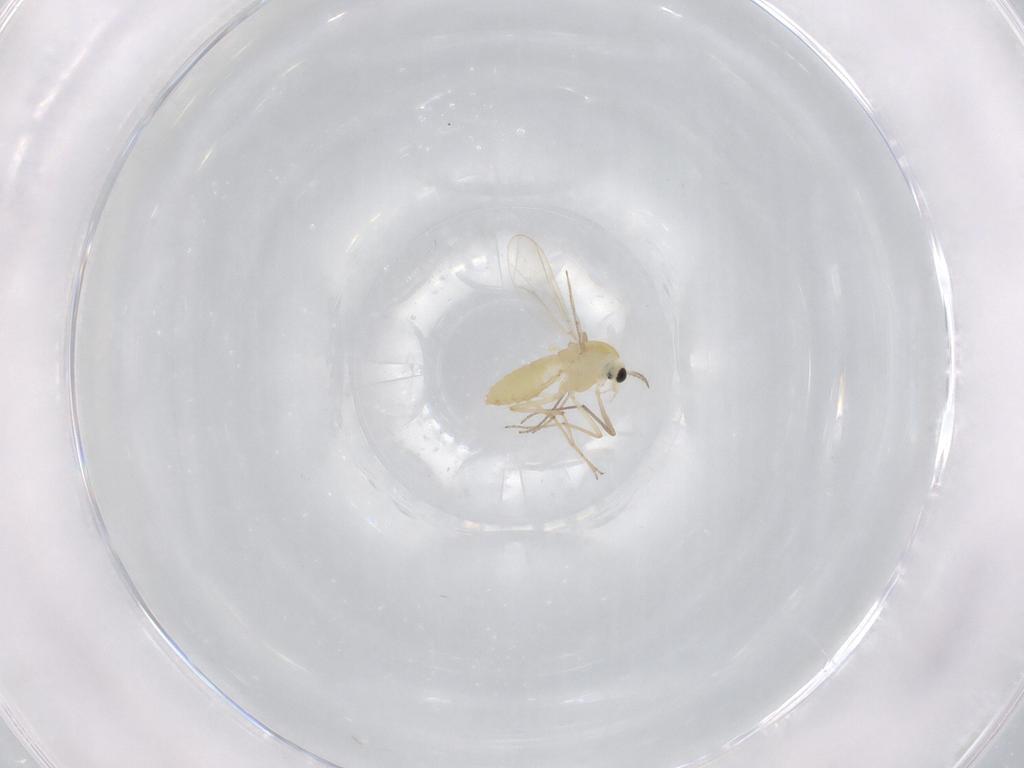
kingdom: Animalia
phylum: Arthropoda
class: Insecta
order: Diptera
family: Chironomidae
